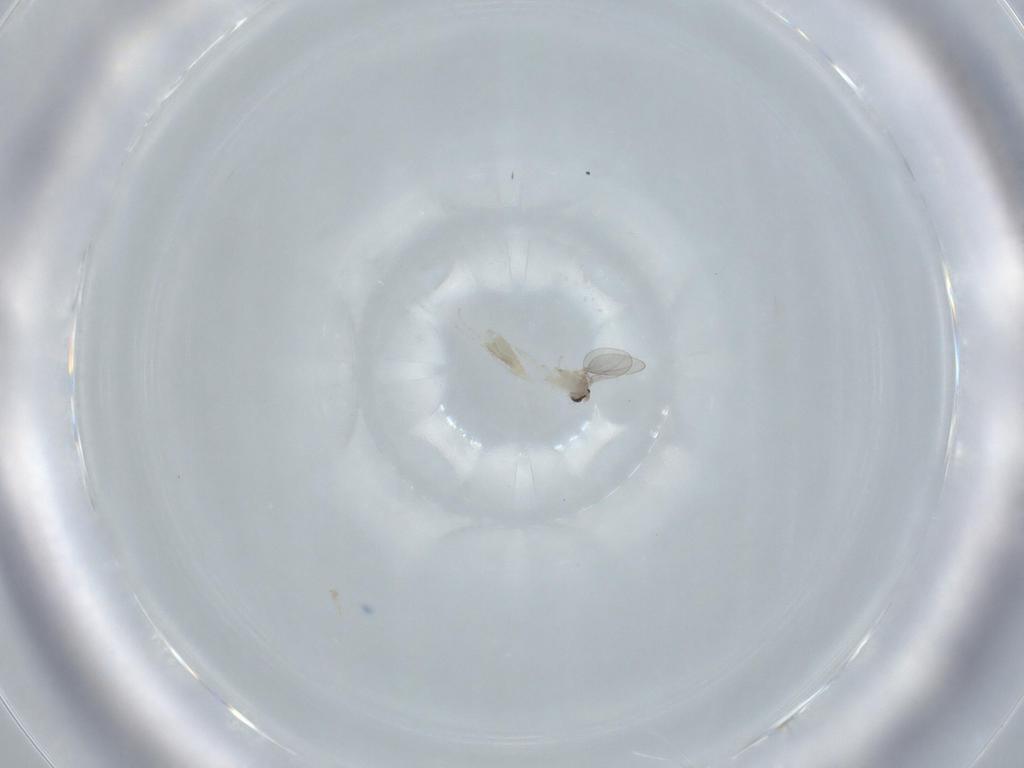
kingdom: Animalia
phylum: Arthropoda
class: Insecta
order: Diptera
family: Cecidomyiidae
